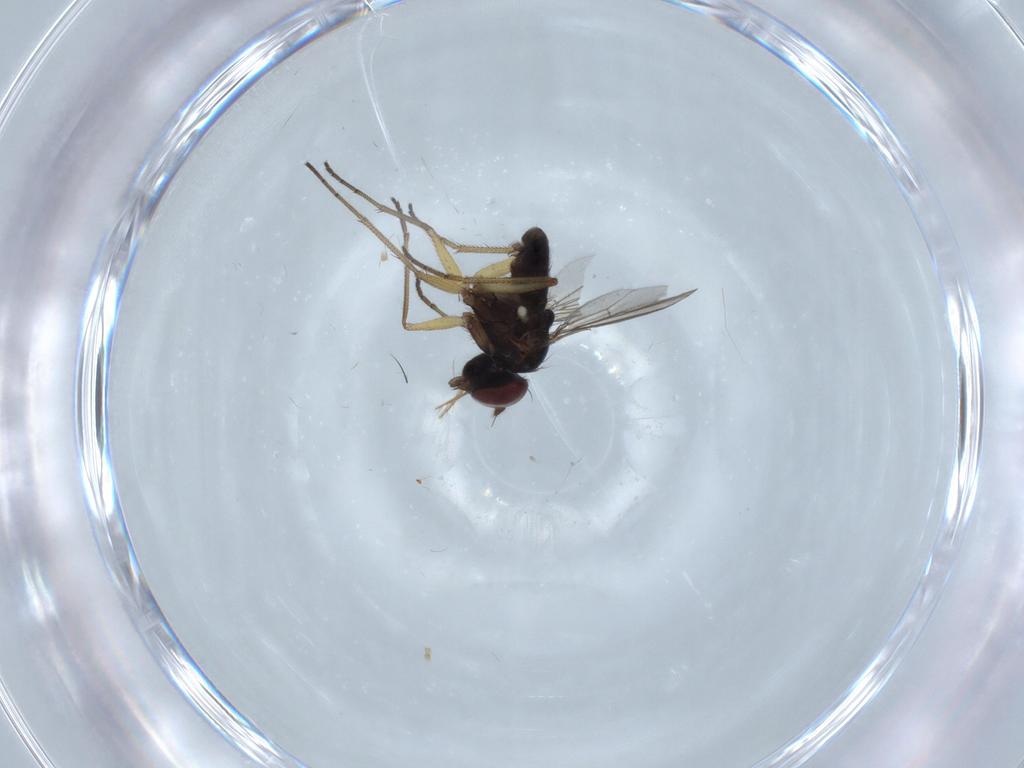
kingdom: Animalia
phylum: Arthropoda
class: Insecta
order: Diptera
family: Dolichopodidae
